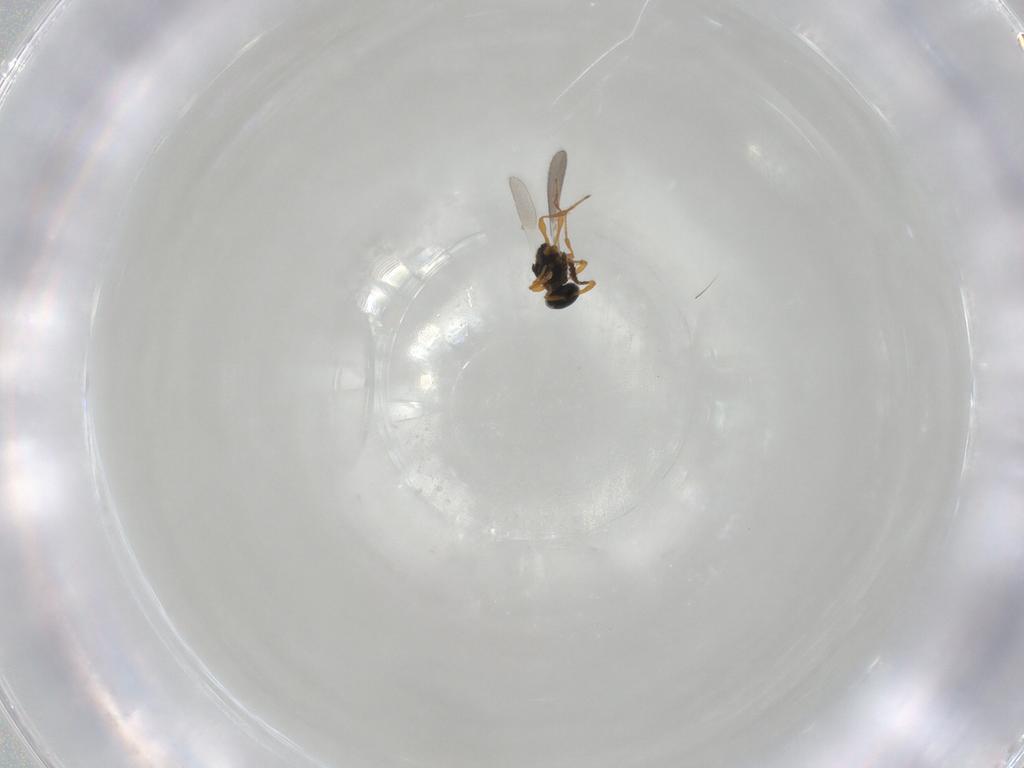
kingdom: Animalia
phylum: Arthropoda
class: Insecta
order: Hymenoptera
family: Platygastridae
